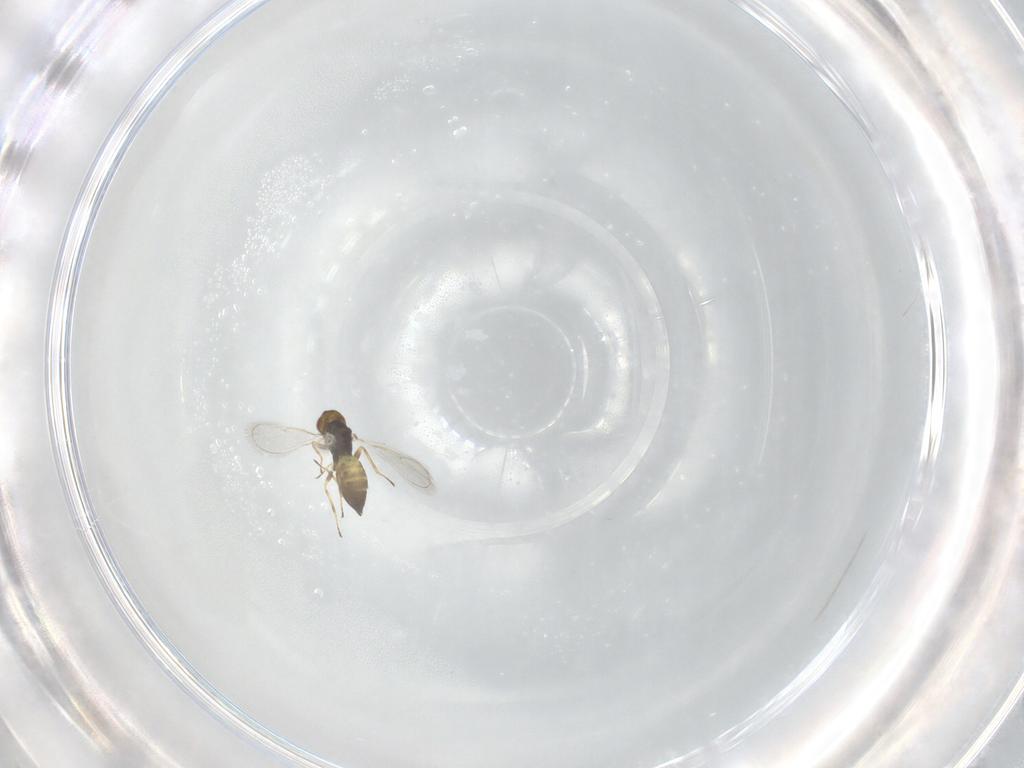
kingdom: Animalia
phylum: Arthropoda
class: Insecta
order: Hymenoptera
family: Eulophidae
